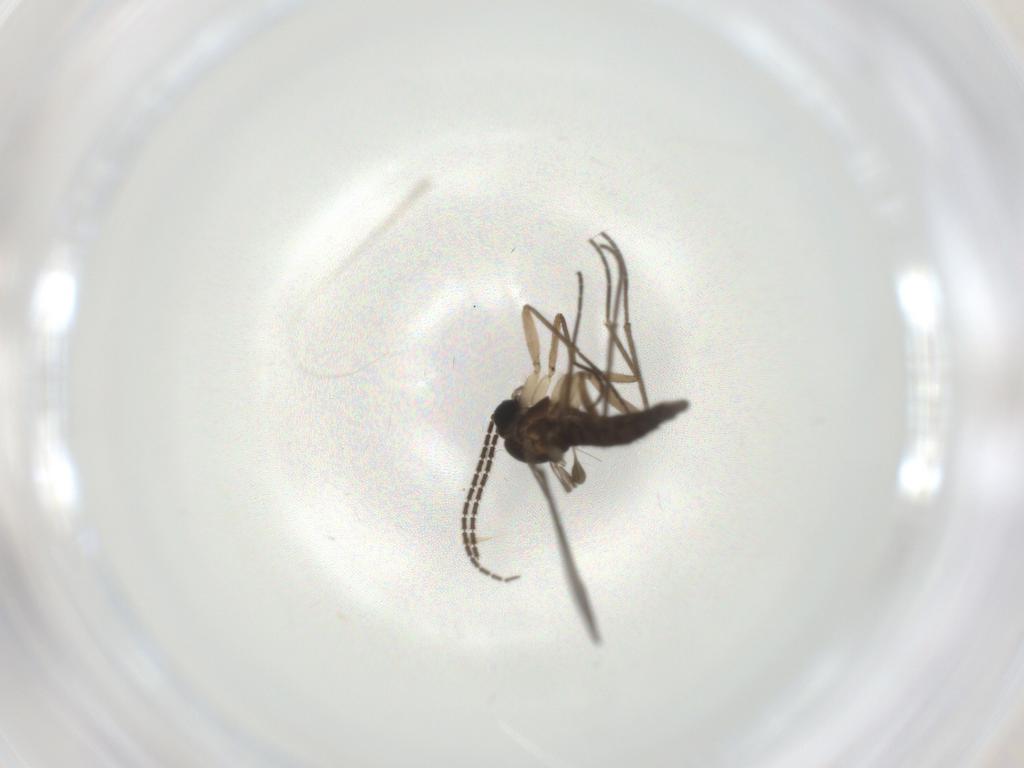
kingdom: Animalia
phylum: Arthropoda
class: Insecta
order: Diptera
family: Sciaridae
